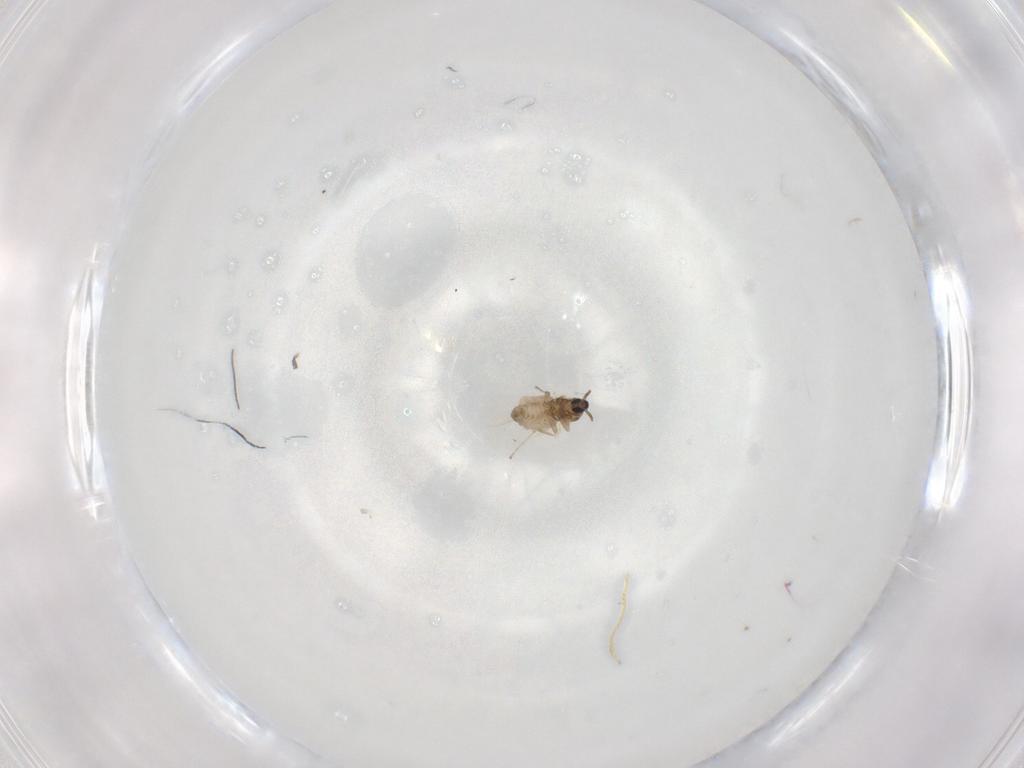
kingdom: Animalia
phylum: Arthropoda
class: Insecta
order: Diptera
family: Cecidomyiidae
